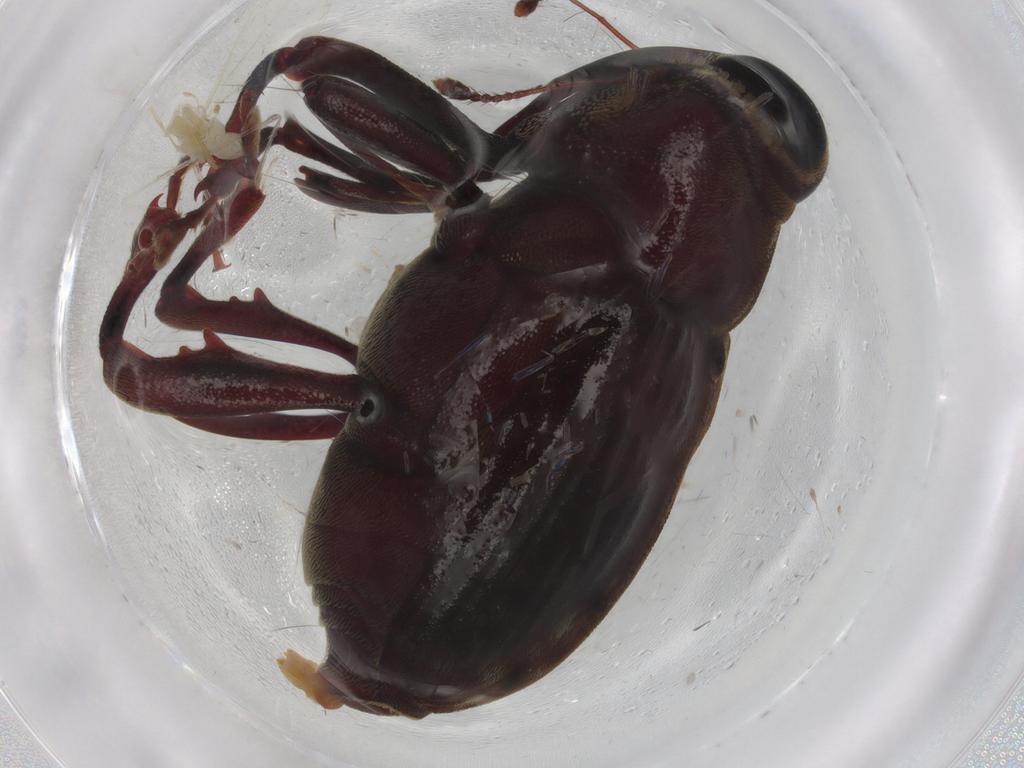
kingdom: Animalia
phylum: Arthropoda
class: Insecta
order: Coleoptera
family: Curculionidae
